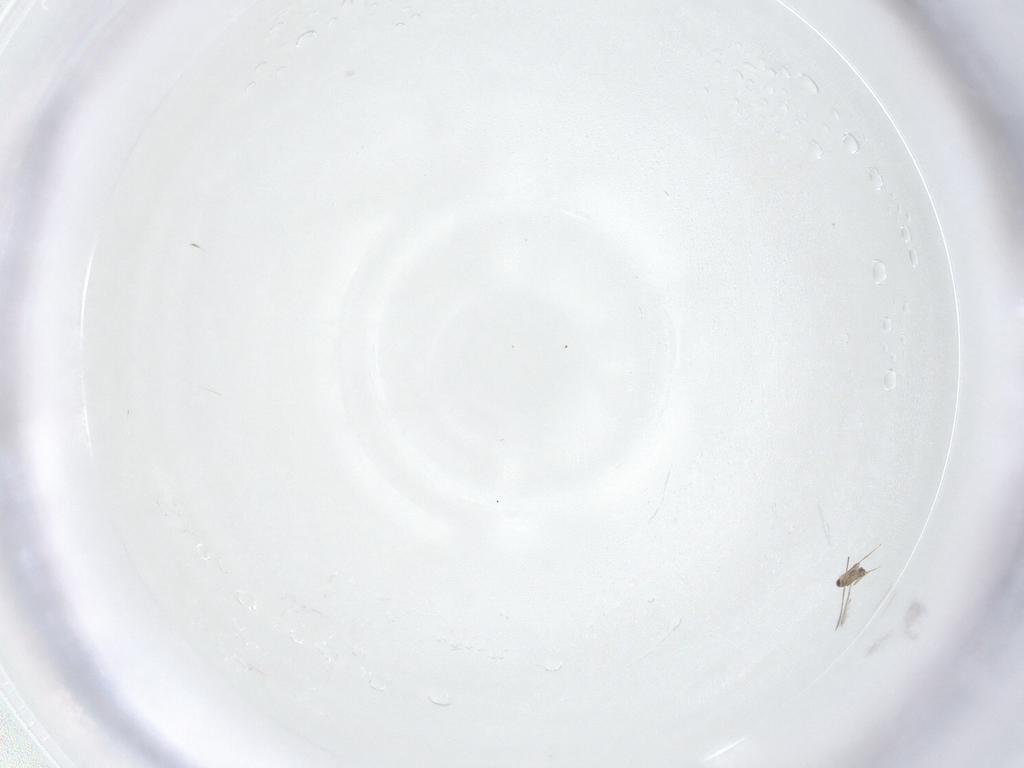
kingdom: Animalia
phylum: Arthropoda
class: Insecta
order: Hymenoptera
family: Mymaridae
